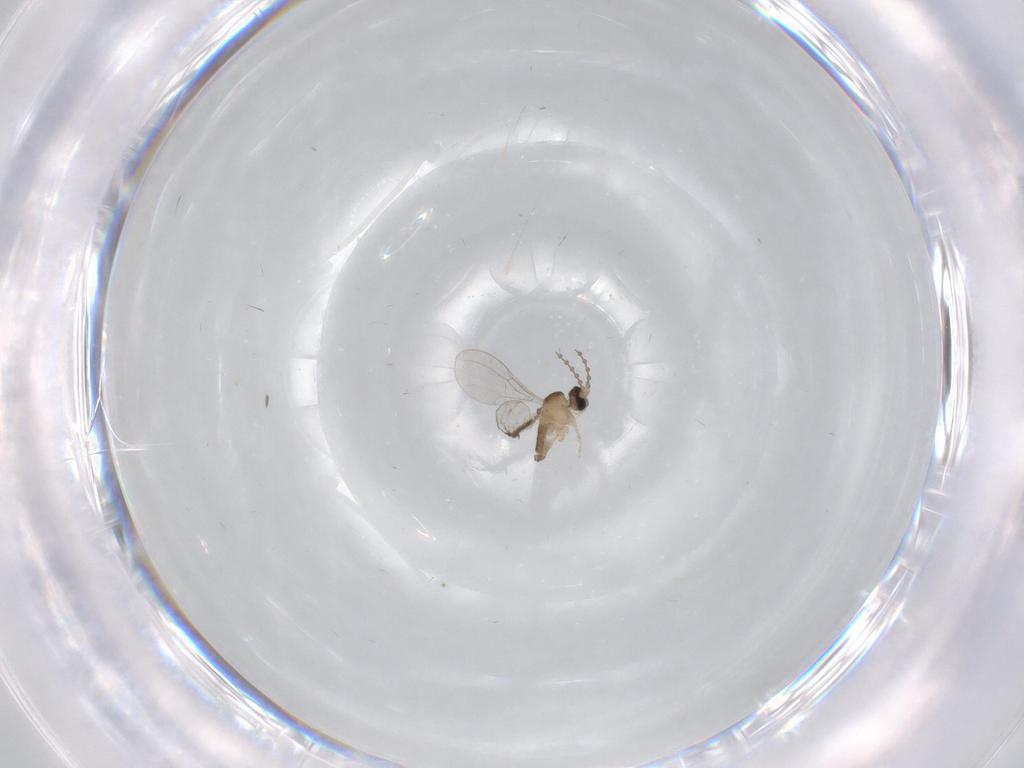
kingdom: Animalia
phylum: Arthropoda
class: Insecta
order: Diptera
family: Cecidomyiidae
